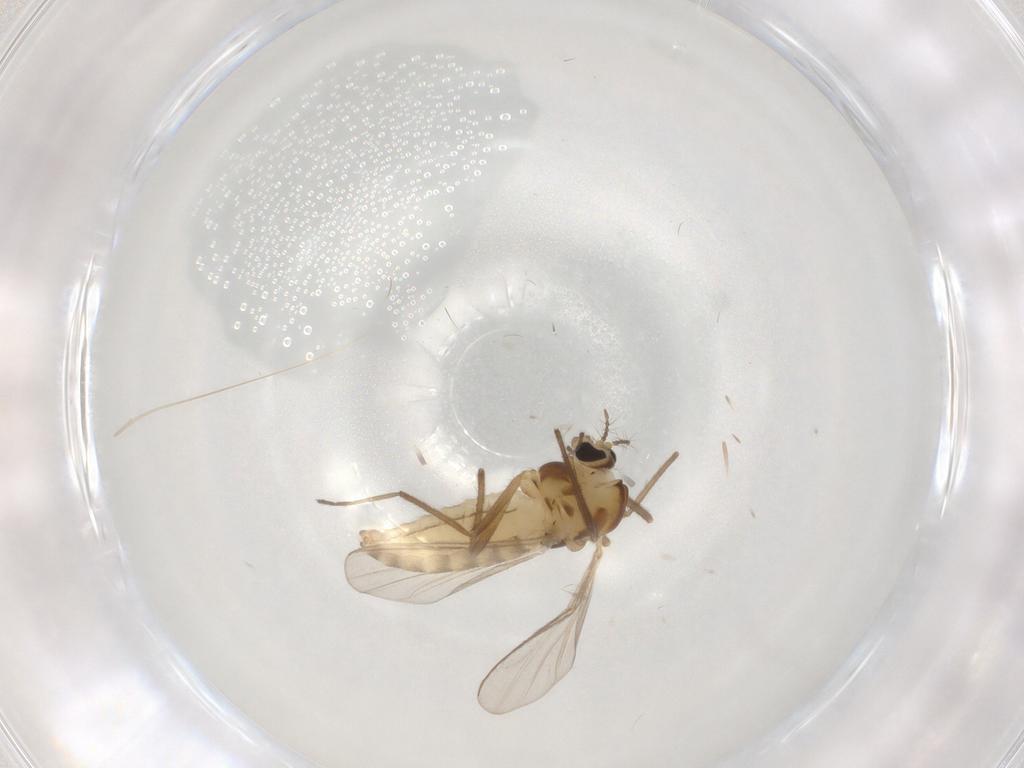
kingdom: Animalia
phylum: Arthropoda
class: Insecta
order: Diptera
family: Chironomidae
